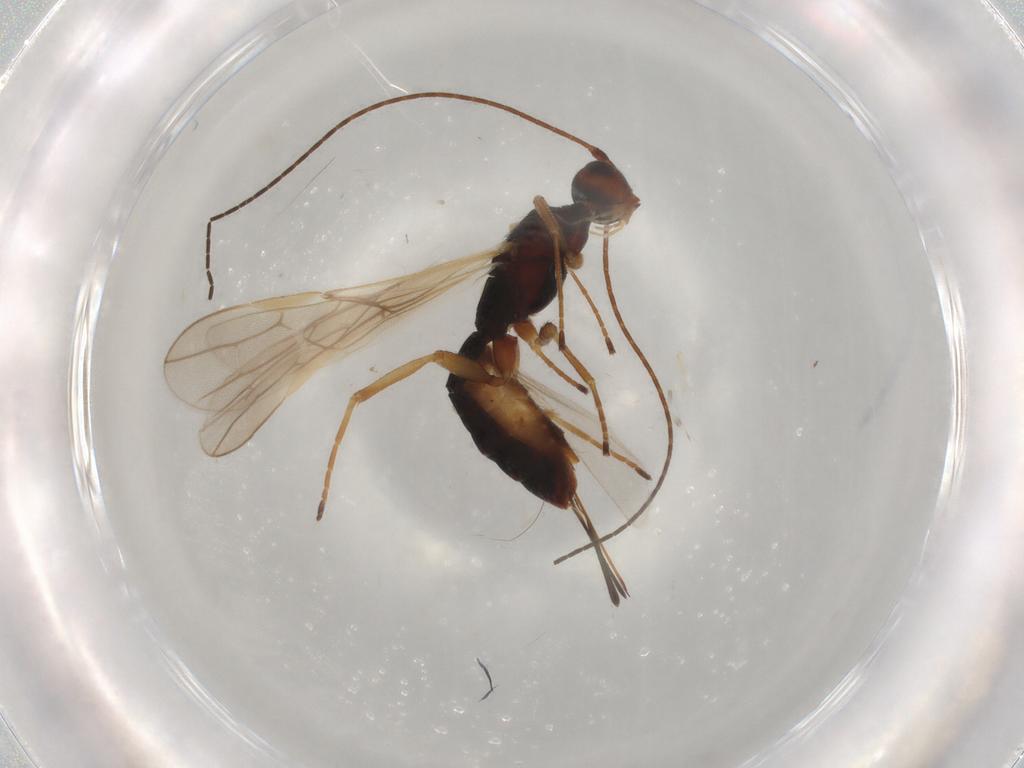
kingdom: Animalia
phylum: Arthropoda
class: Insecta
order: Hymenoptera
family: Braconidae
